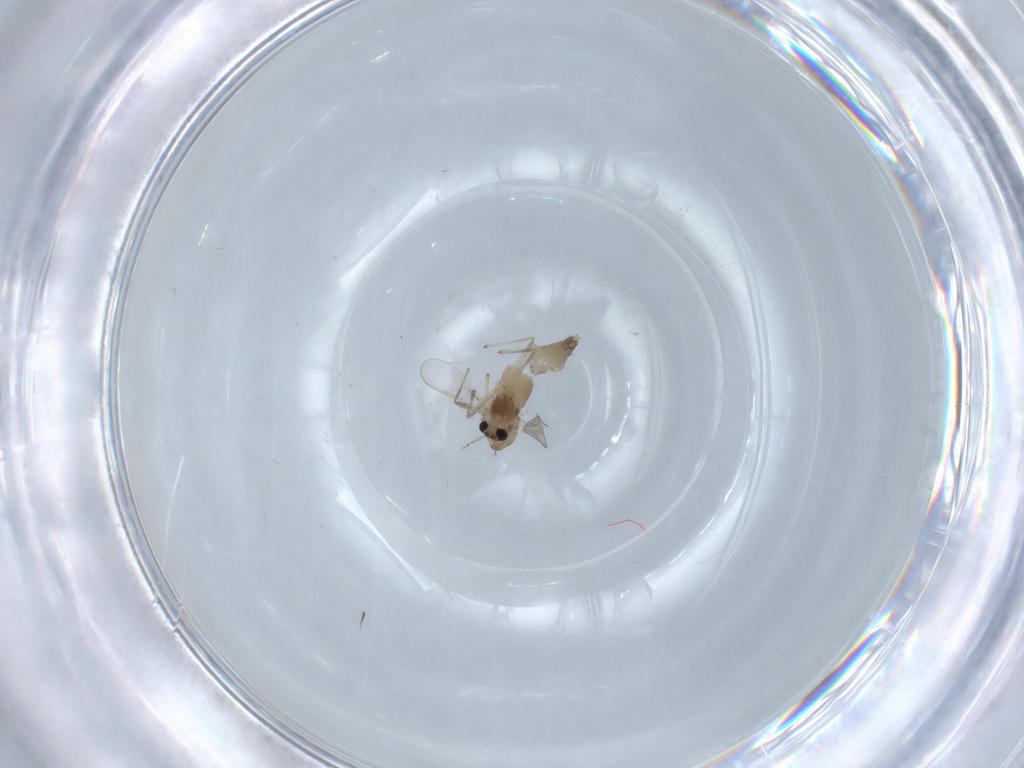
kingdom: Animalia
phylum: Arthropoda
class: Insecta
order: Diptera
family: Chironomidae
